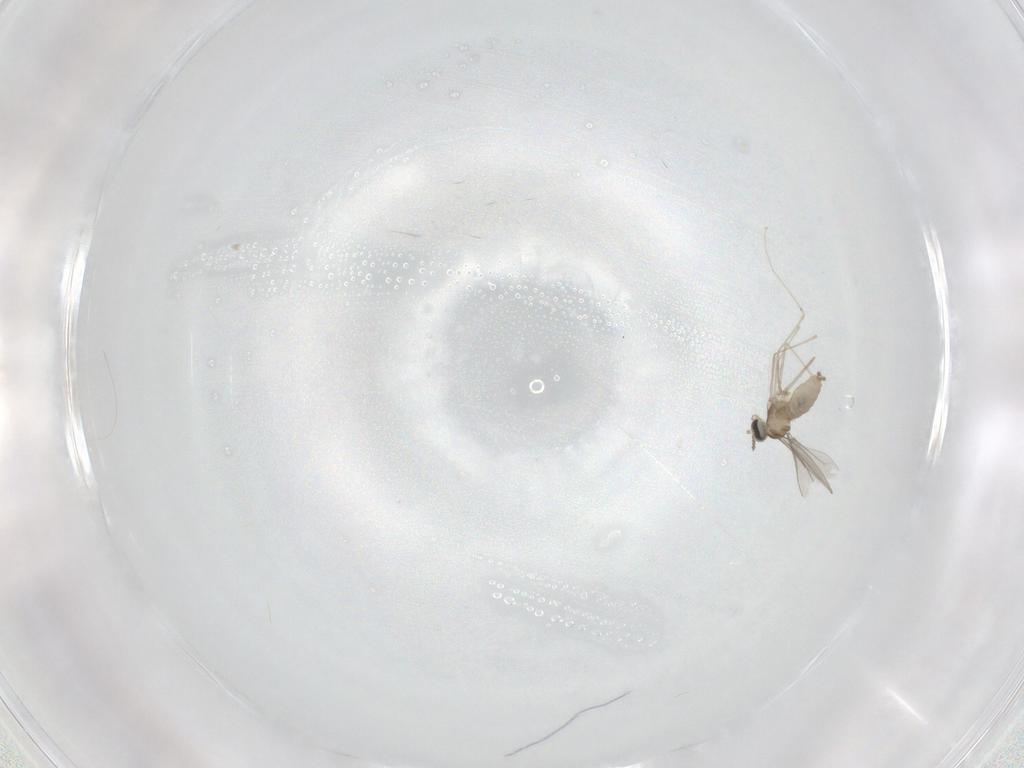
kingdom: Animalia
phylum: Arthropoda
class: Insecta
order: Diptera
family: Cecidomyiidae
